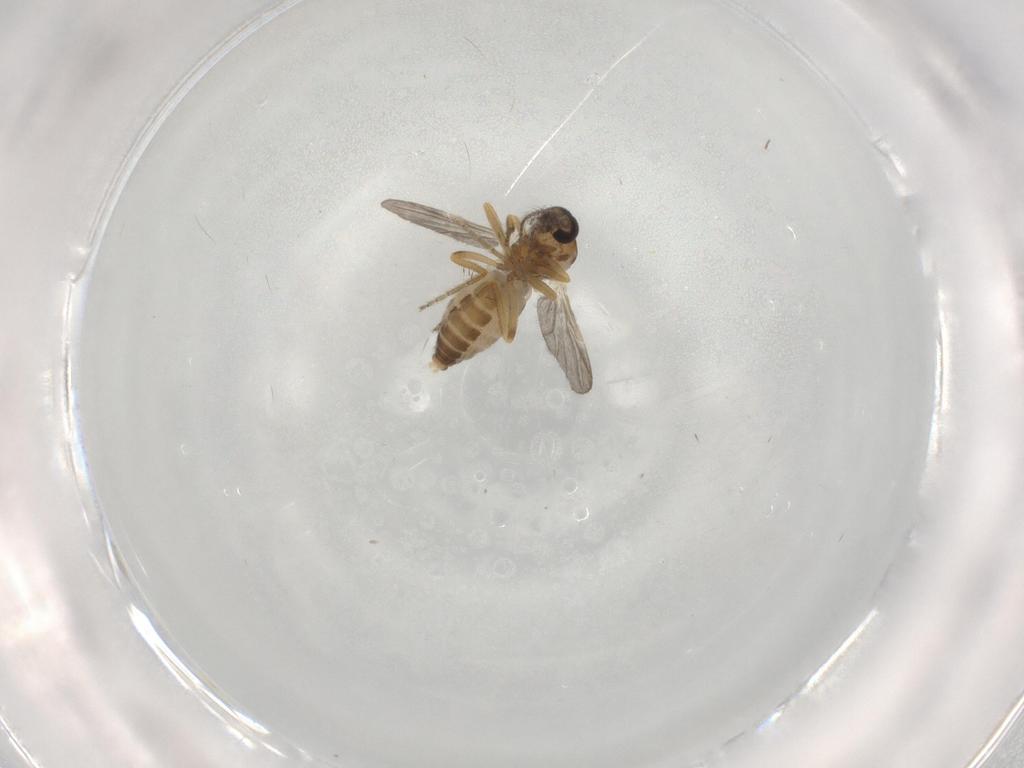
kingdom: Animalia
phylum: Arthropoda
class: Insecta
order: Diptera
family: Ceratopogonidae
